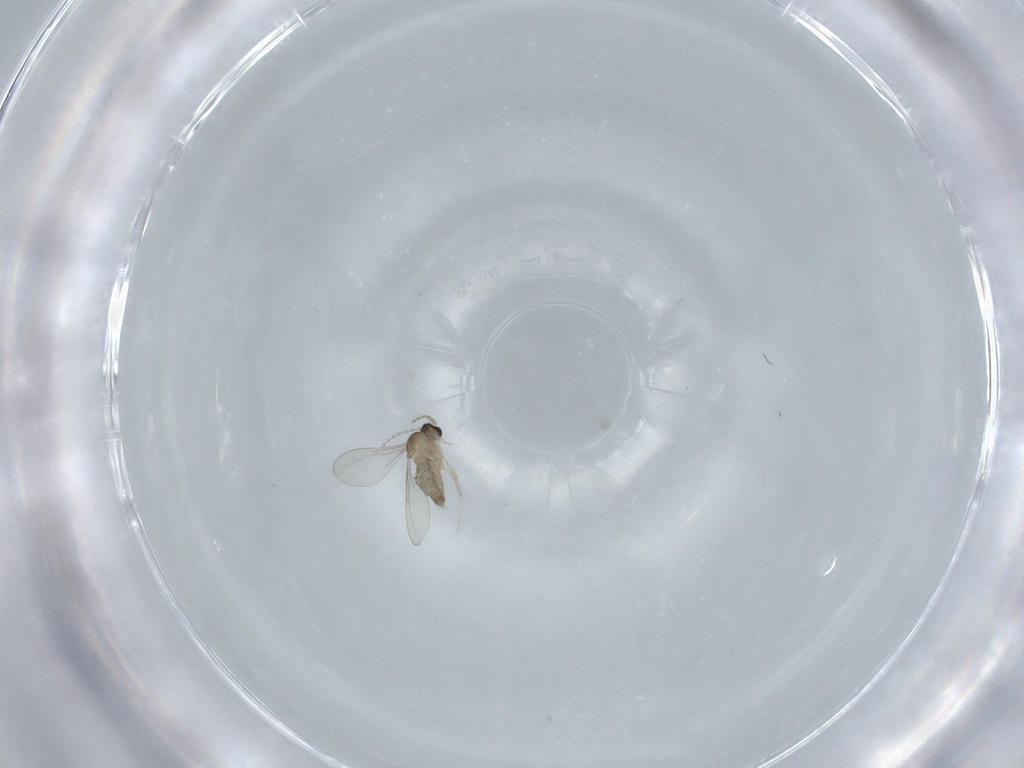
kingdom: Animalia
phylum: Arthropoda
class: Insecta
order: Diptera
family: Cecidomyiidae
